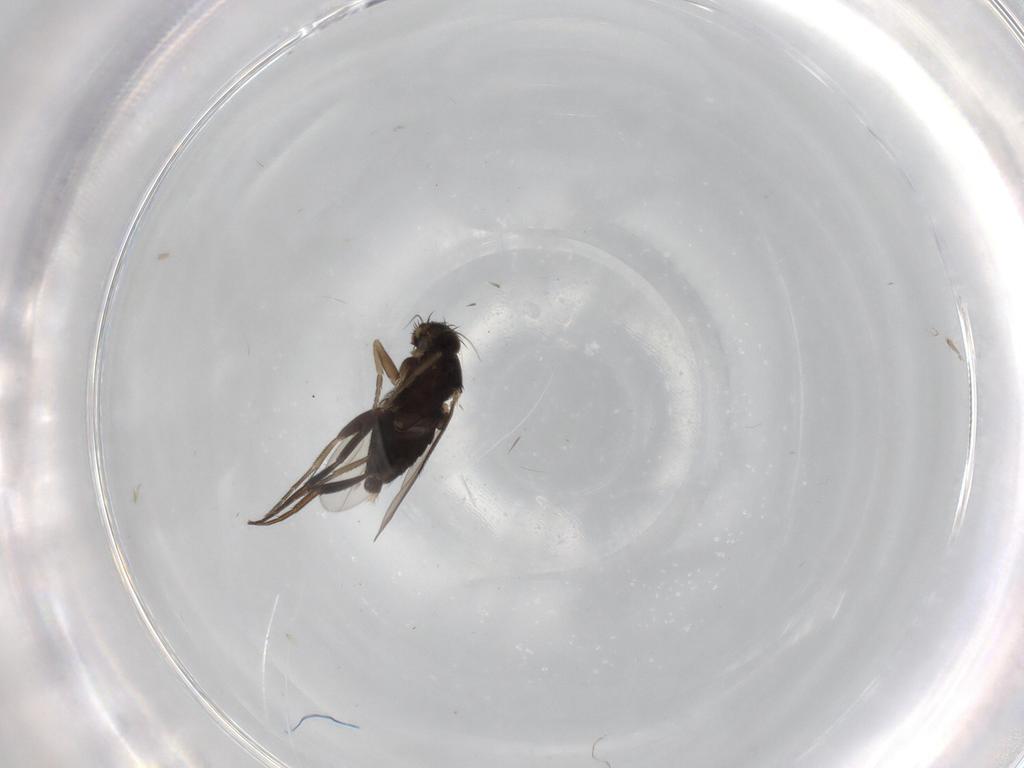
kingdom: Animalia
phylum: Arthropoda
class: Insecta
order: Diptera
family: Phoridae
